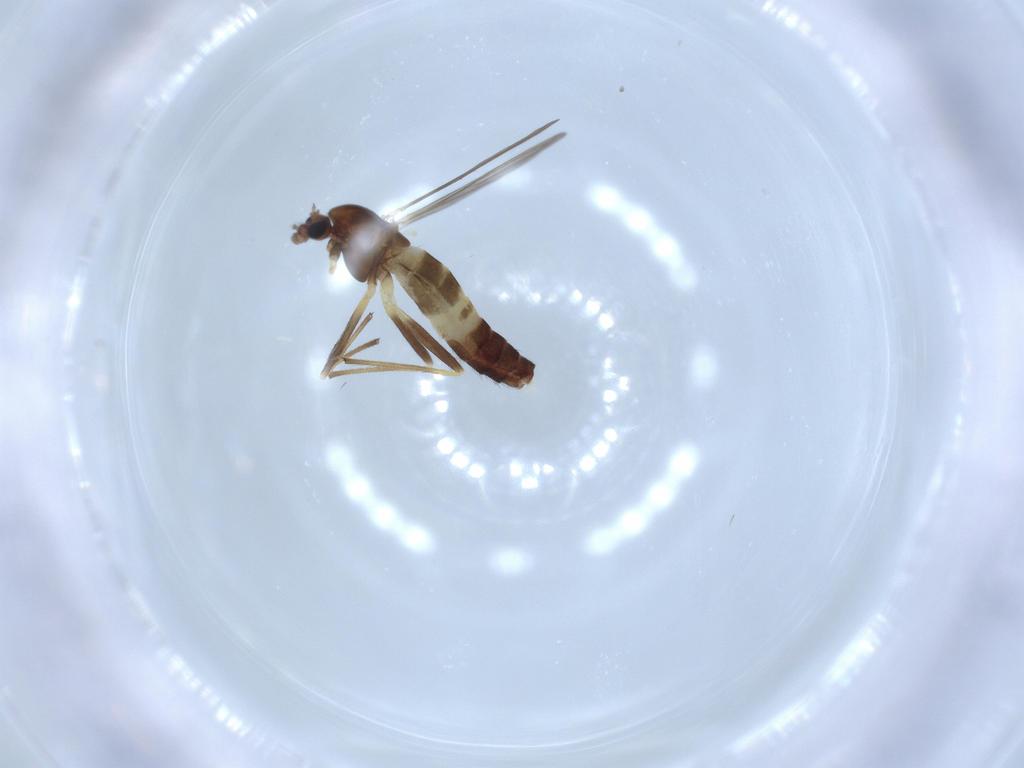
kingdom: Animalia
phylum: Arthropoda
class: Insecta
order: Diptera
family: Chironomidae
